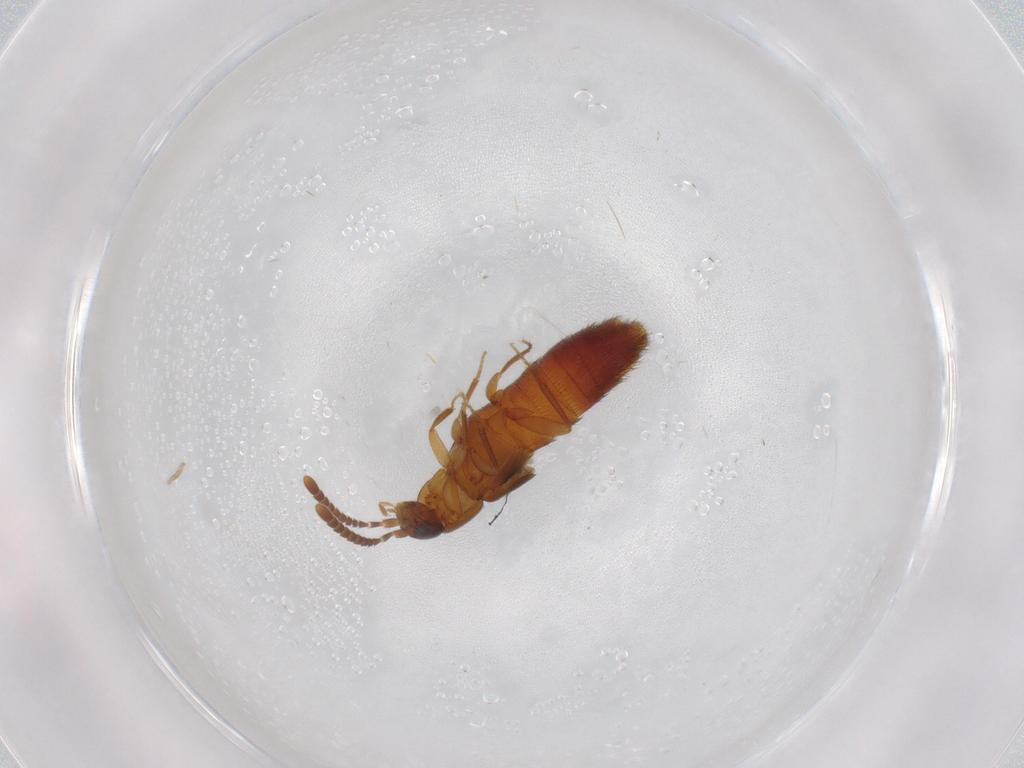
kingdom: Animalia
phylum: Arthropoda
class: Insecta
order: Coleoptera
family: Staphylinidae
